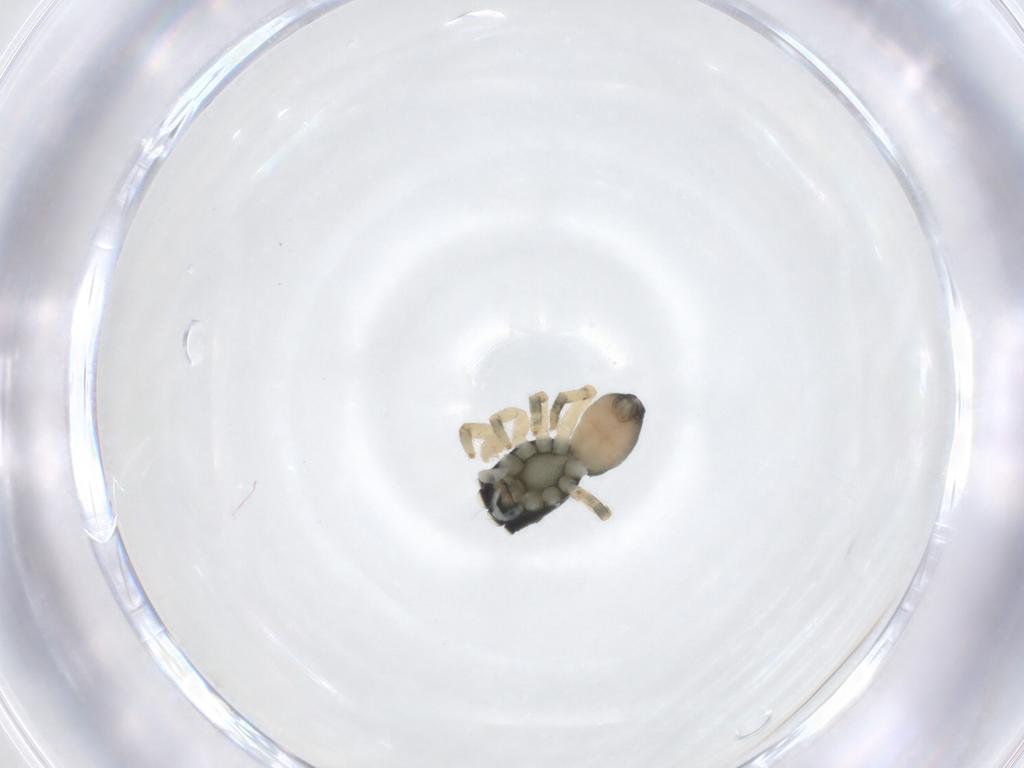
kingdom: Animalia
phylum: Arthropoda
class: Arachnida
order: Araneae
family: Salticidae
